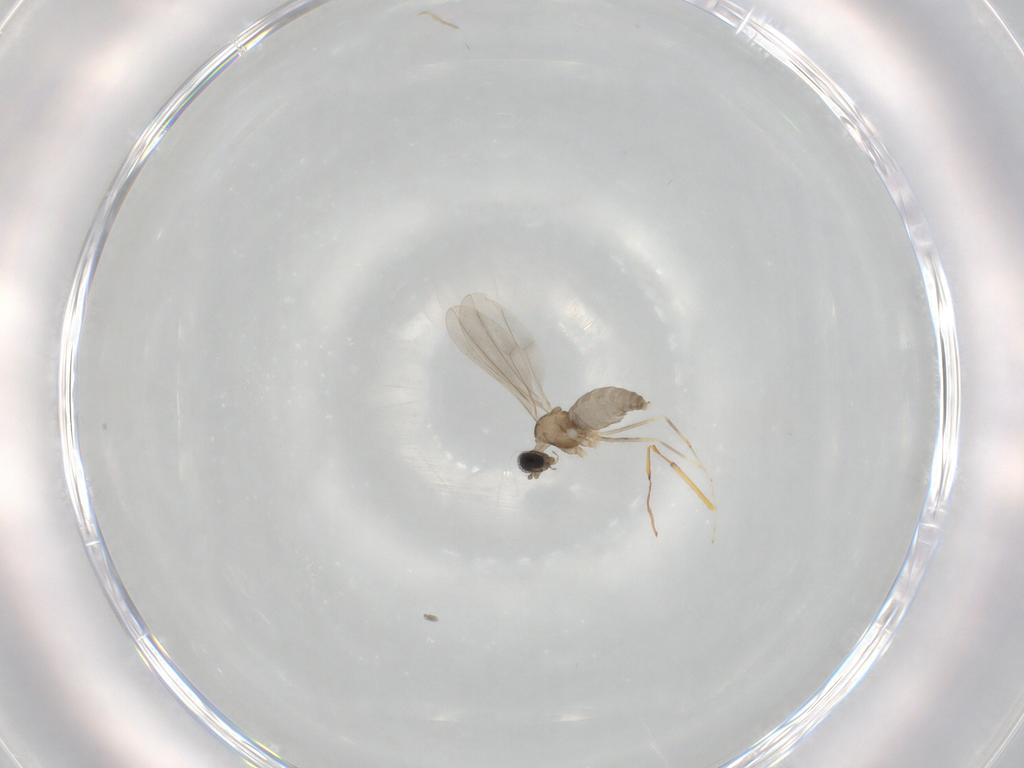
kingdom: Animalia
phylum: Arthropoda
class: Insecta
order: Diptera
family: Cecidomyiidae
